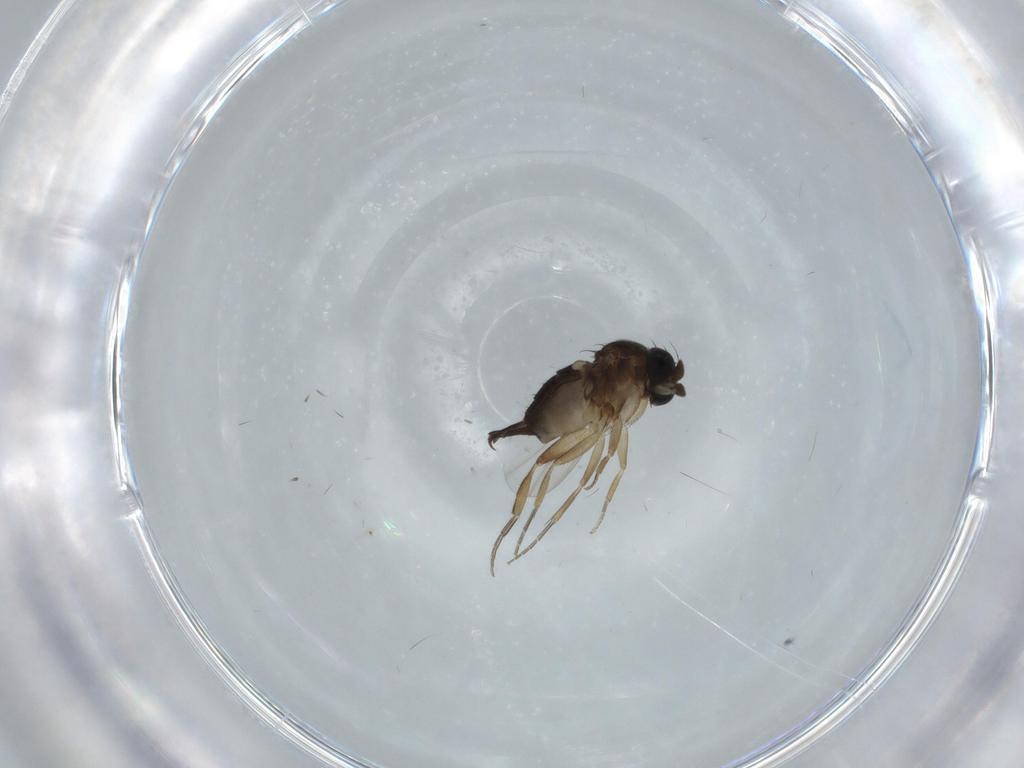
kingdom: Animalia
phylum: Arthropoda
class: Insecta
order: Diptera
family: Phoridae
